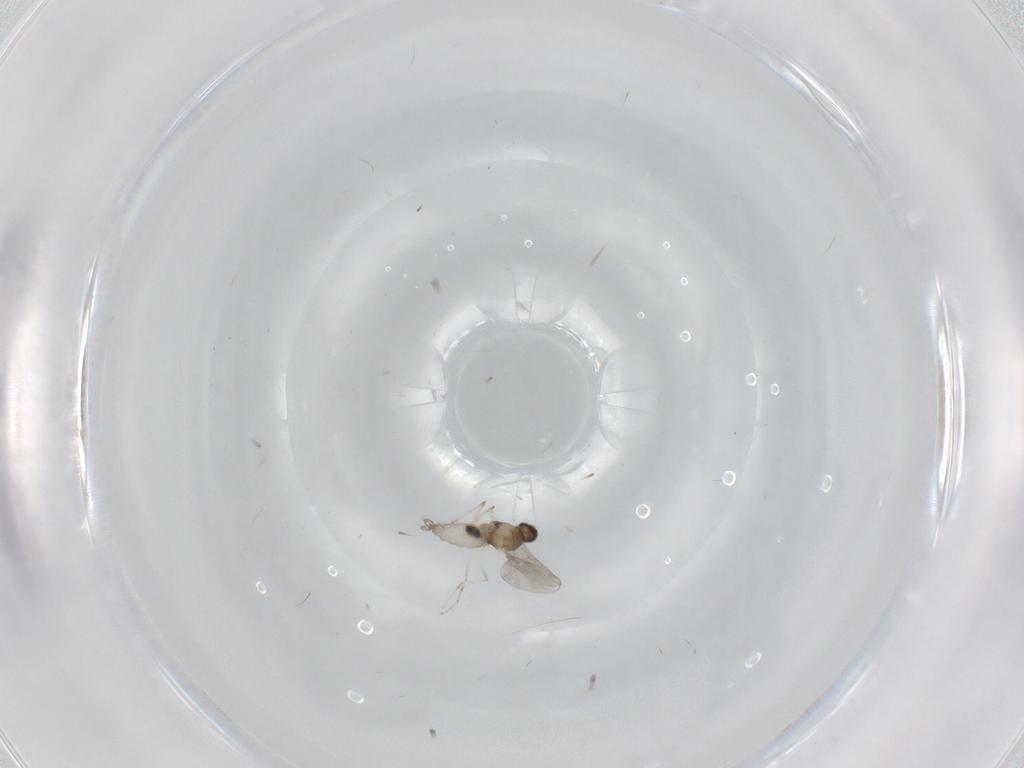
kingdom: Animalia
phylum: Arthropoda
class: Insecta
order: Diptera
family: Cecidomyiidae
